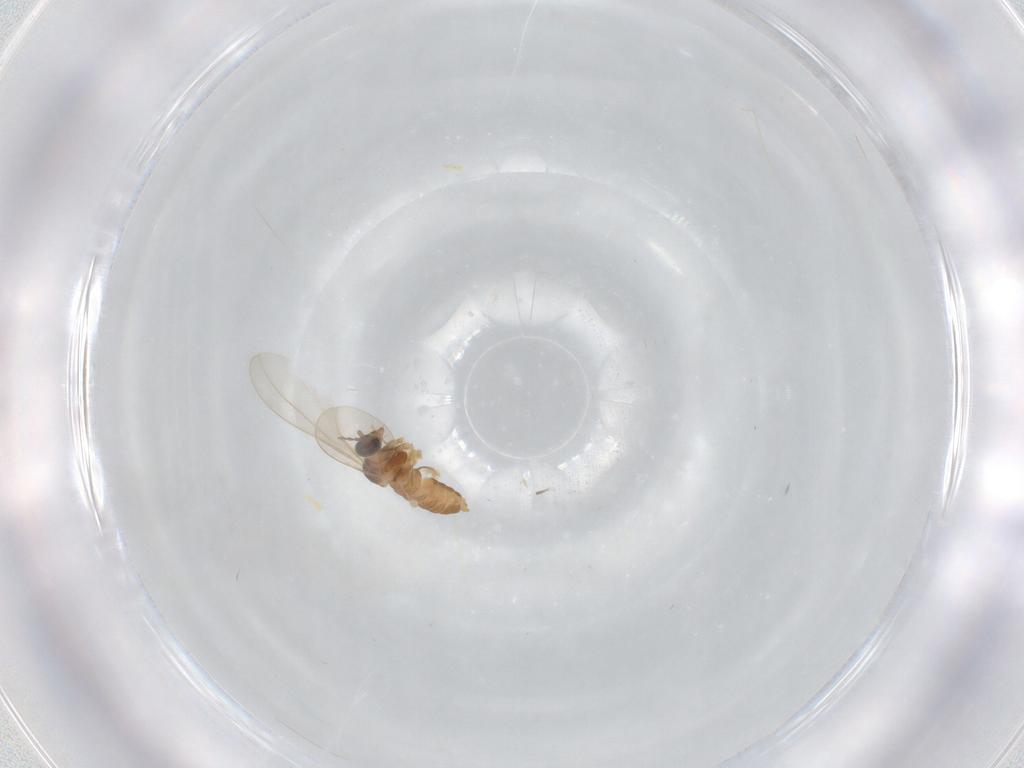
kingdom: Animalia
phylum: Arthropoda
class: Insecta
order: Diptera
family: Cecidomyiidae
